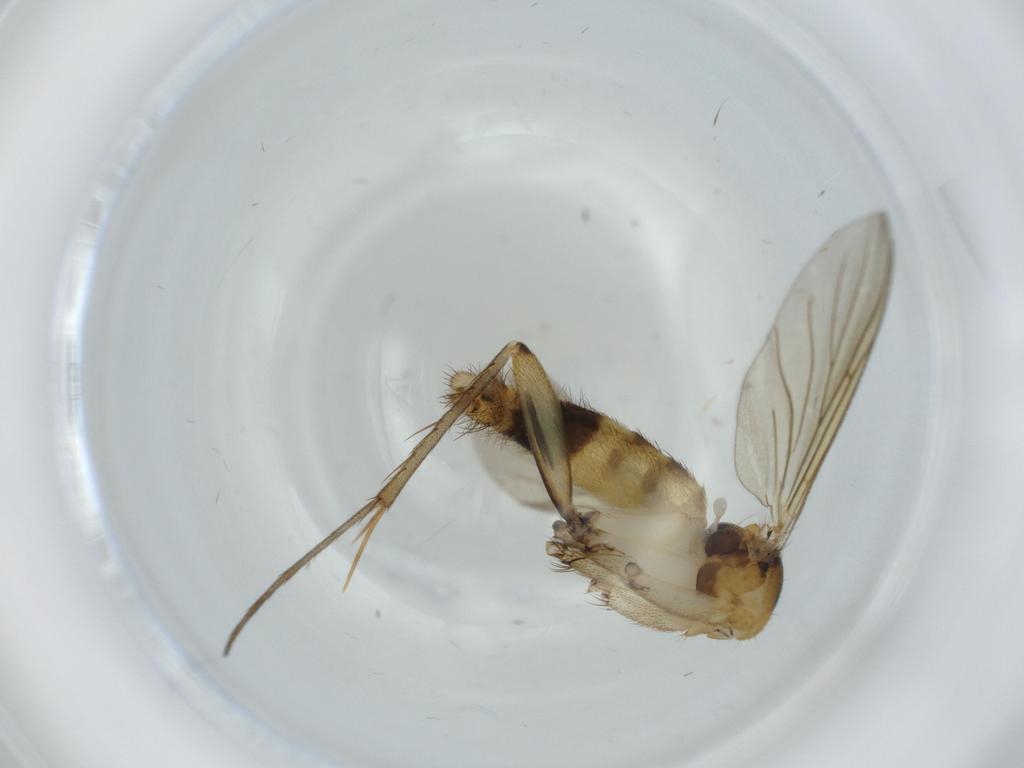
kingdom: Animalia
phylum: Arthropoda
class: Insecta
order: Diptera
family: Mycetophilidae
